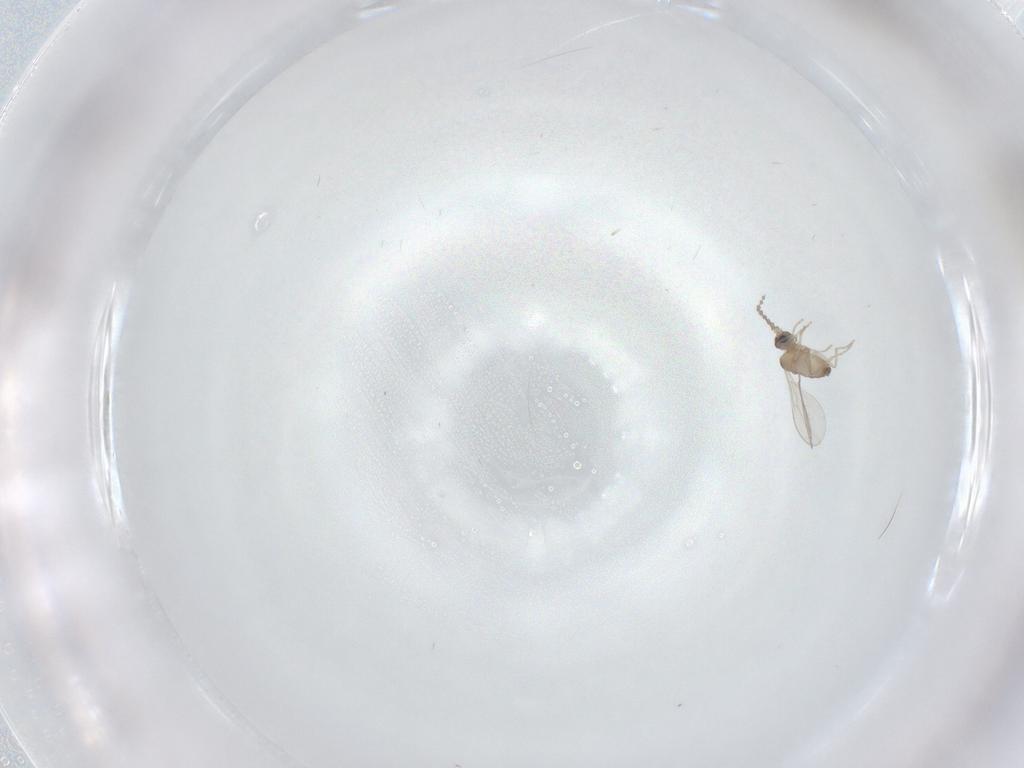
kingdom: Animalia
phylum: Arthropoda
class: Insecta
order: Diptera
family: Cecidomyiidae
